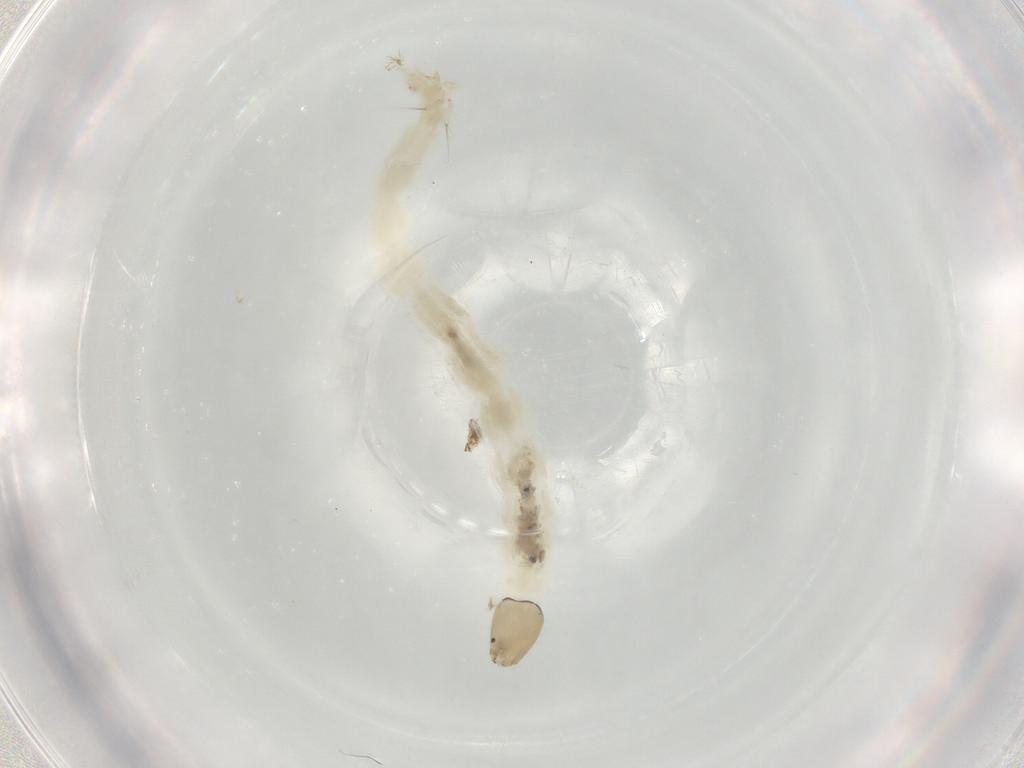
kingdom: Animalia
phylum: Arthropoda
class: Insecta
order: Diptera
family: Chironomidae
